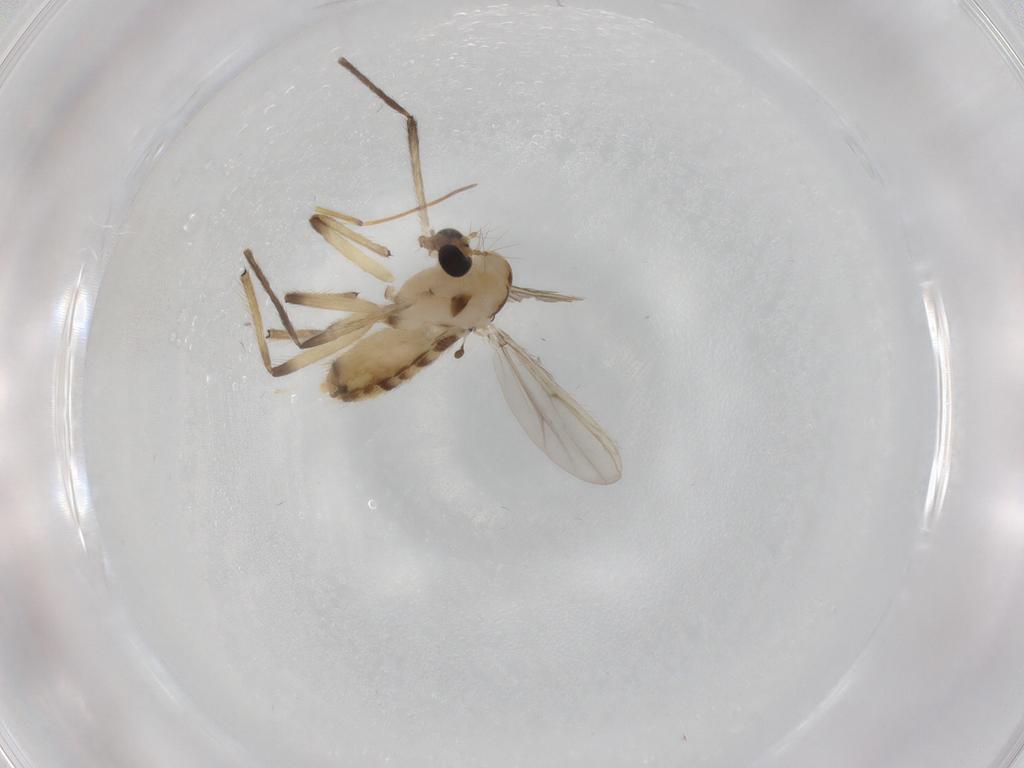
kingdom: Animalia
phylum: Arthropoda
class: Insecta
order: Diptera
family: Chironomidae
